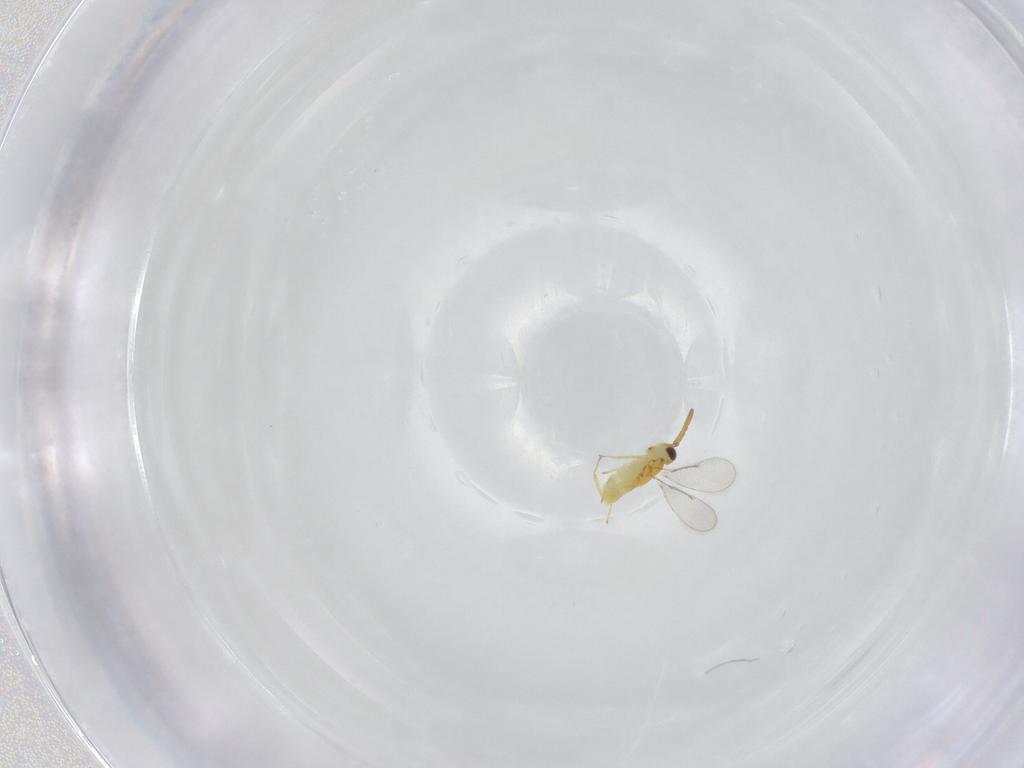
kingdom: Animalia
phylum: Arthropoda
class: Insecta
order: Hymenoptera
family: Aphelinidae
